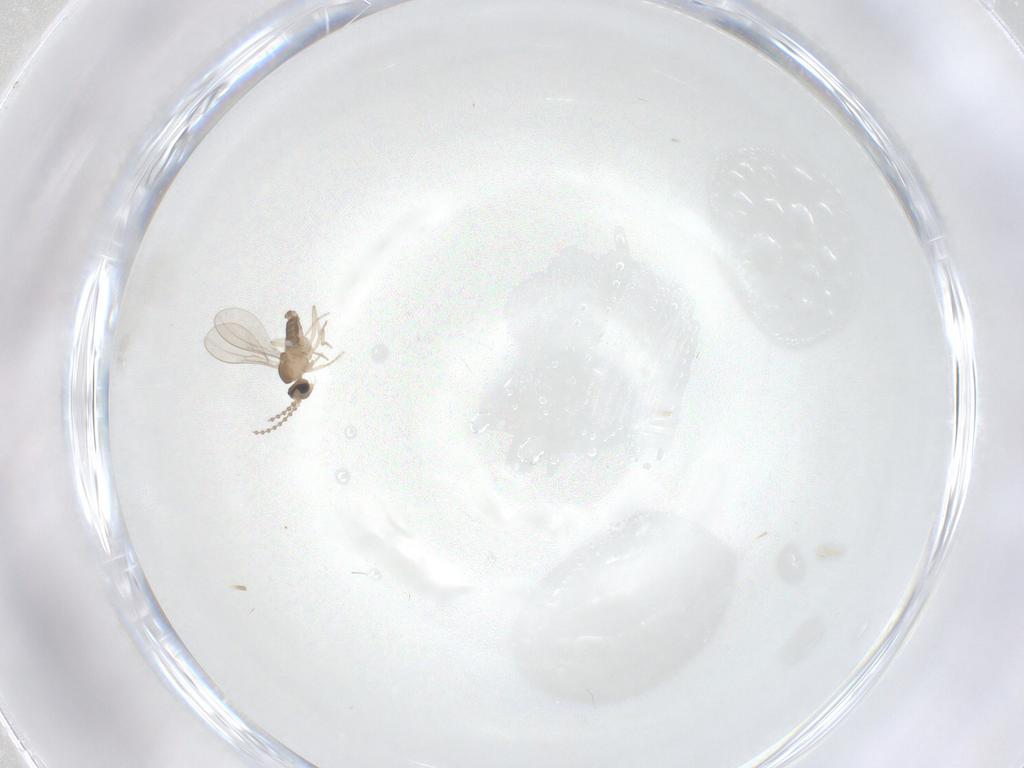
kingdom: Animalia
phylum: Arthropoda
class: Insecta
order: Diptera
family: Cecidomyiidae
